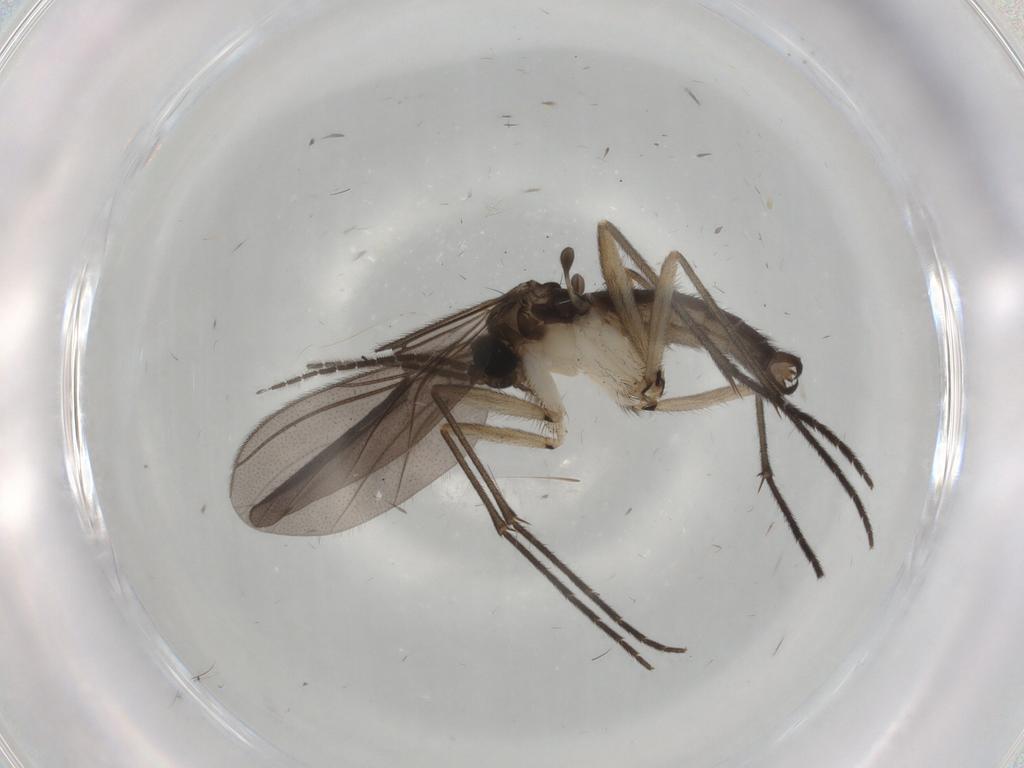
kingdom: Animalia
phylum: Arthropoda
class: Insecta
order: Diptera
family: Sciaridae
